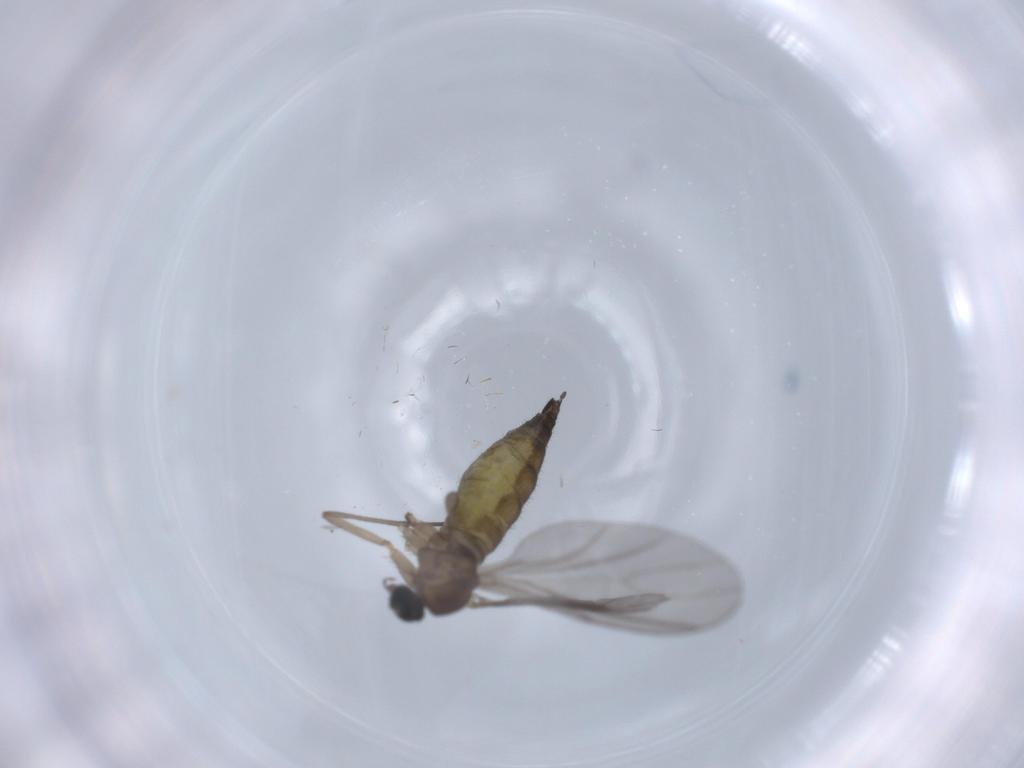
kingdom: Animalia
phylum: Arthropoda
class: Insecta
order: Diptera
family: Sciaridae
